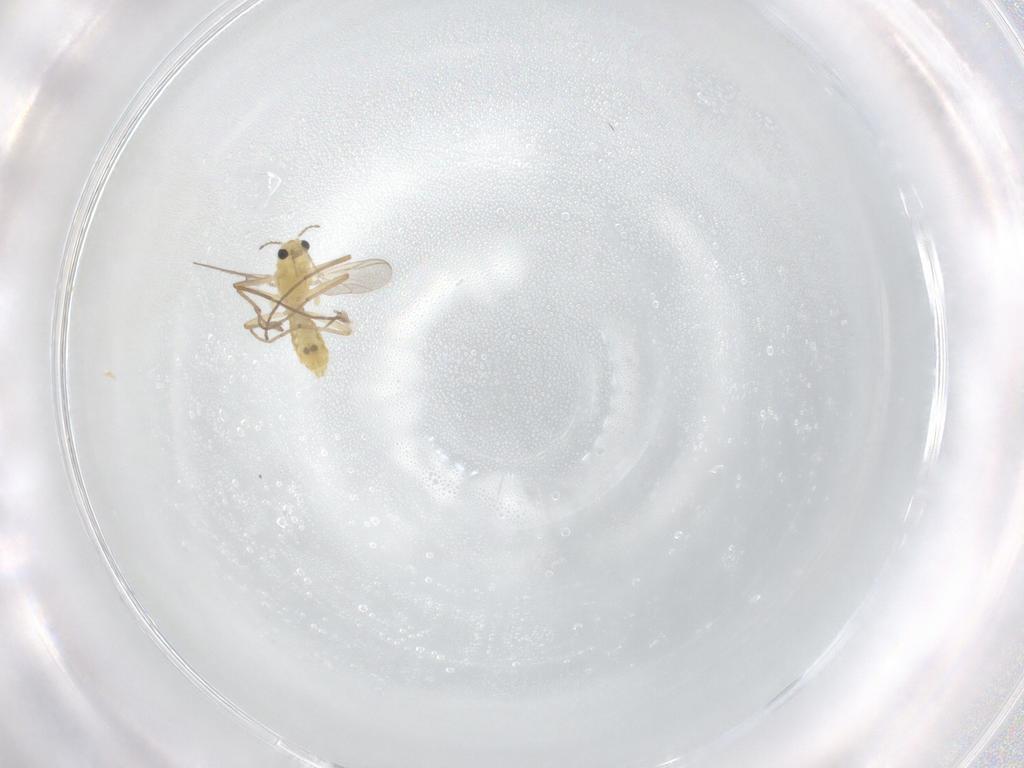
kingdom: Animalia
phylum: Arthropoda
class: Insecta
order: Diptera
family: Chironomidae
